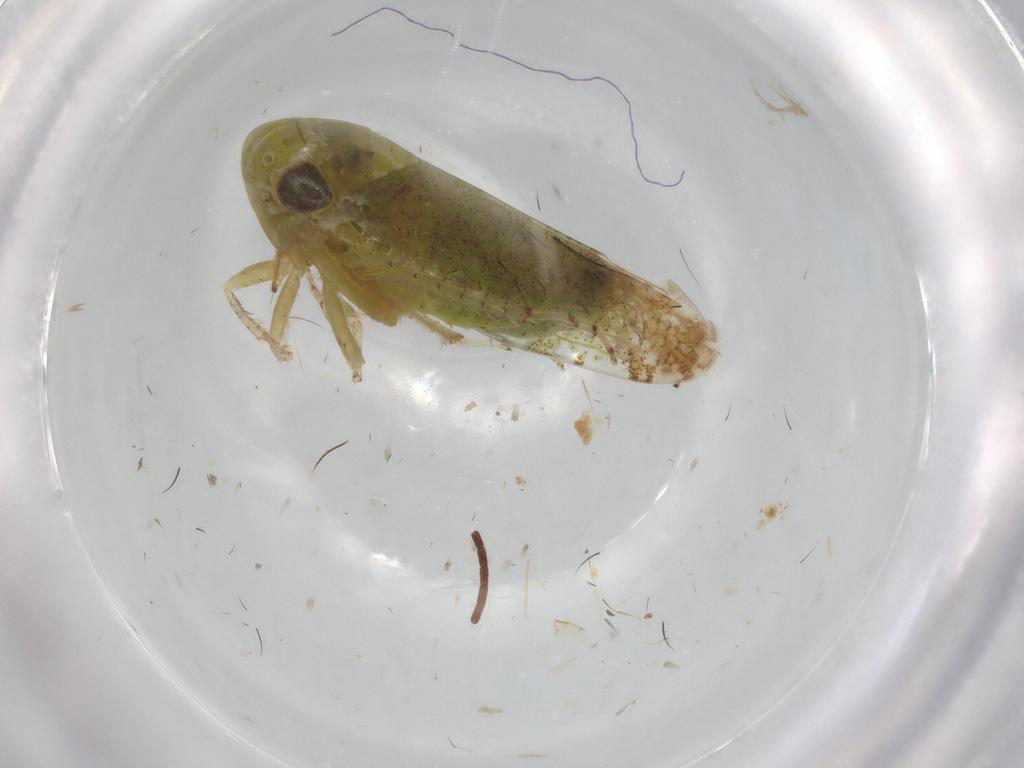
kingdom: Animalia
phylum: Arthropoda
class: Insecta
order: Hemiptera
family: Cicadellidae
